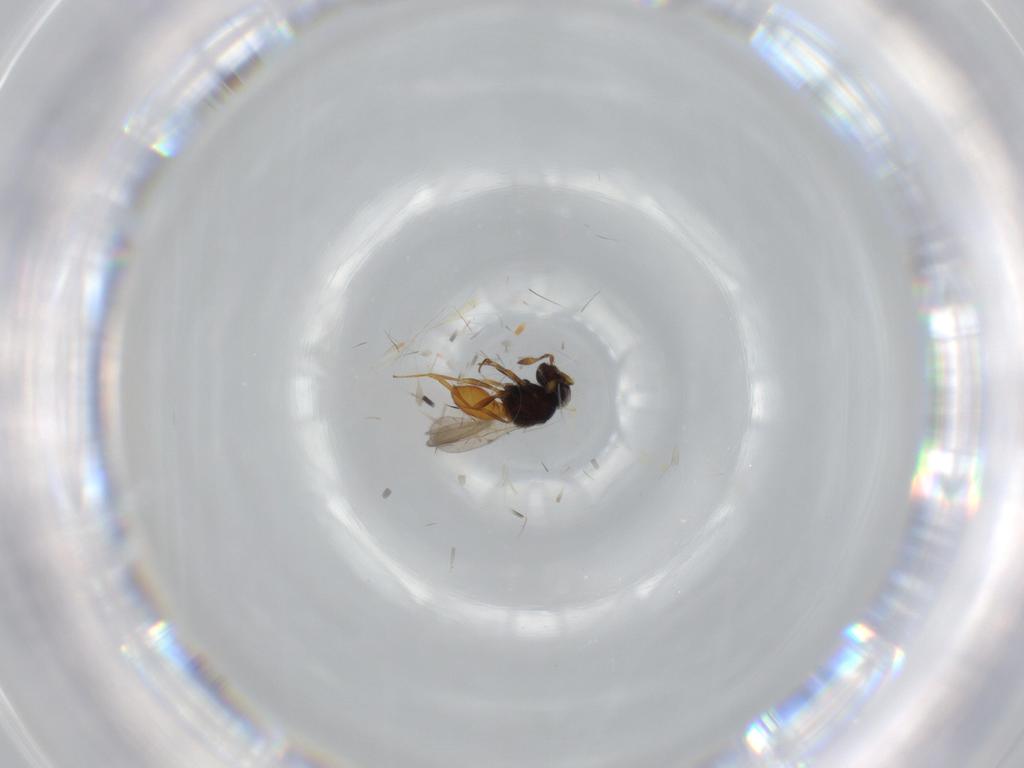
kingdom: Animalia
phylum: Arthropoda
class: Insecta
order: Hymenoptera
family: Scelionidae
